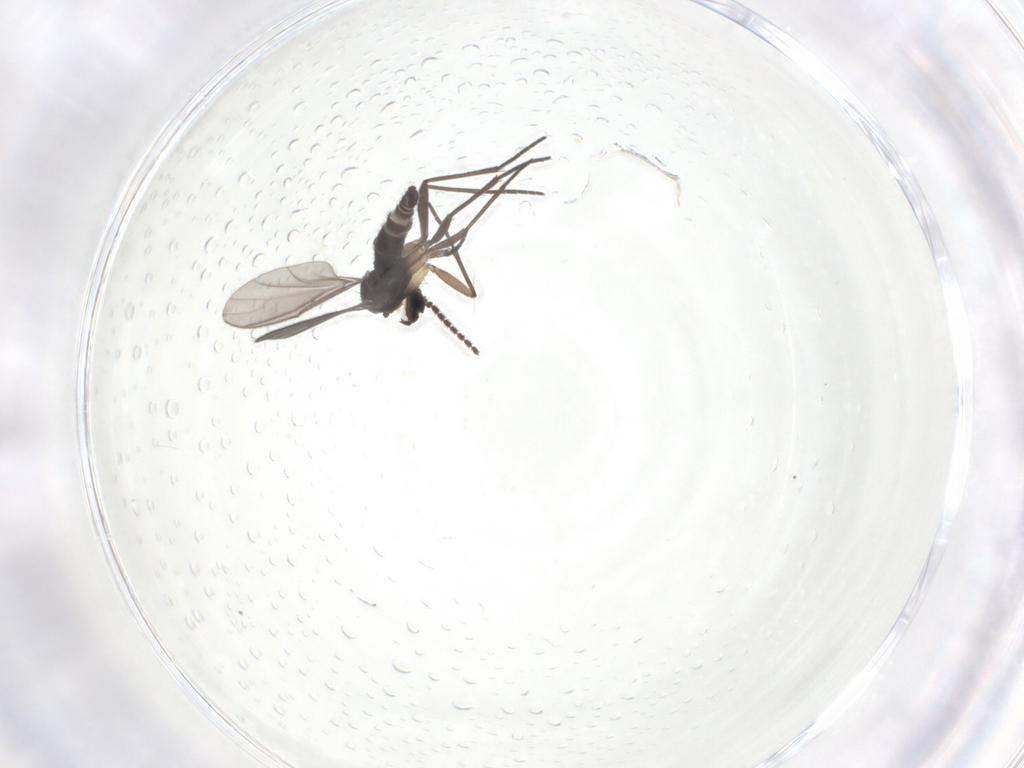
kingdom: Animalia
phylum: Arthropoda
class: Insecta
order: Diptera
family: Sciaridae
